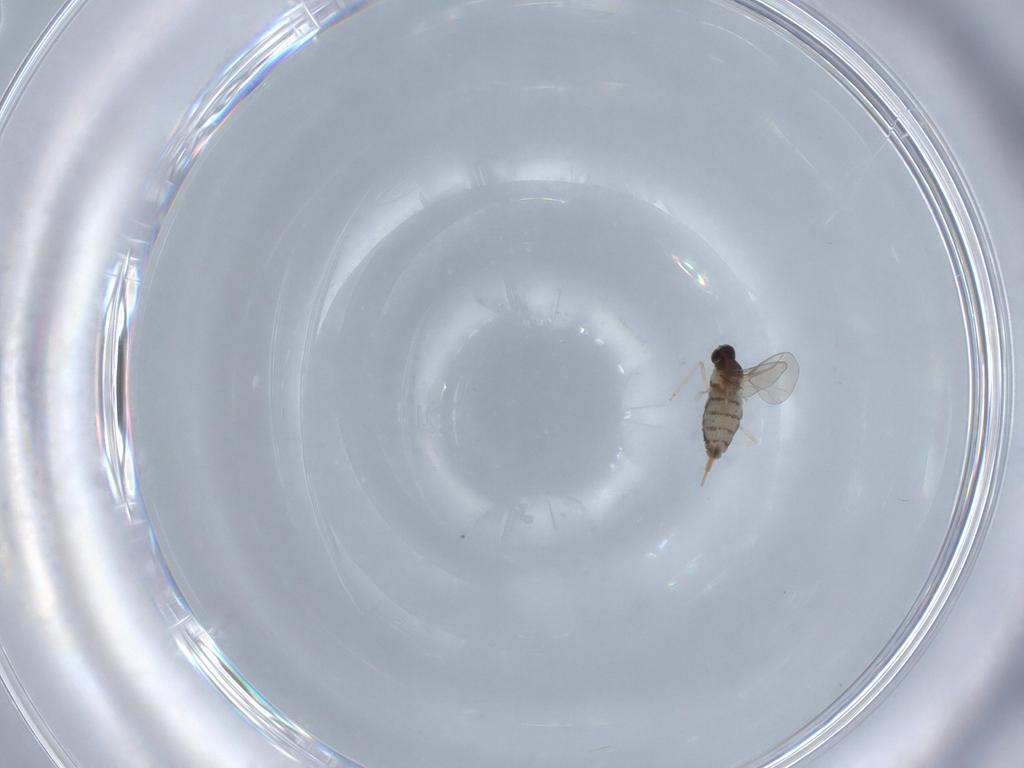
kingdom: Animalia
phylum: Arthropoda
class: Insecta
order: Diptera
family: Cecidomyiidae
